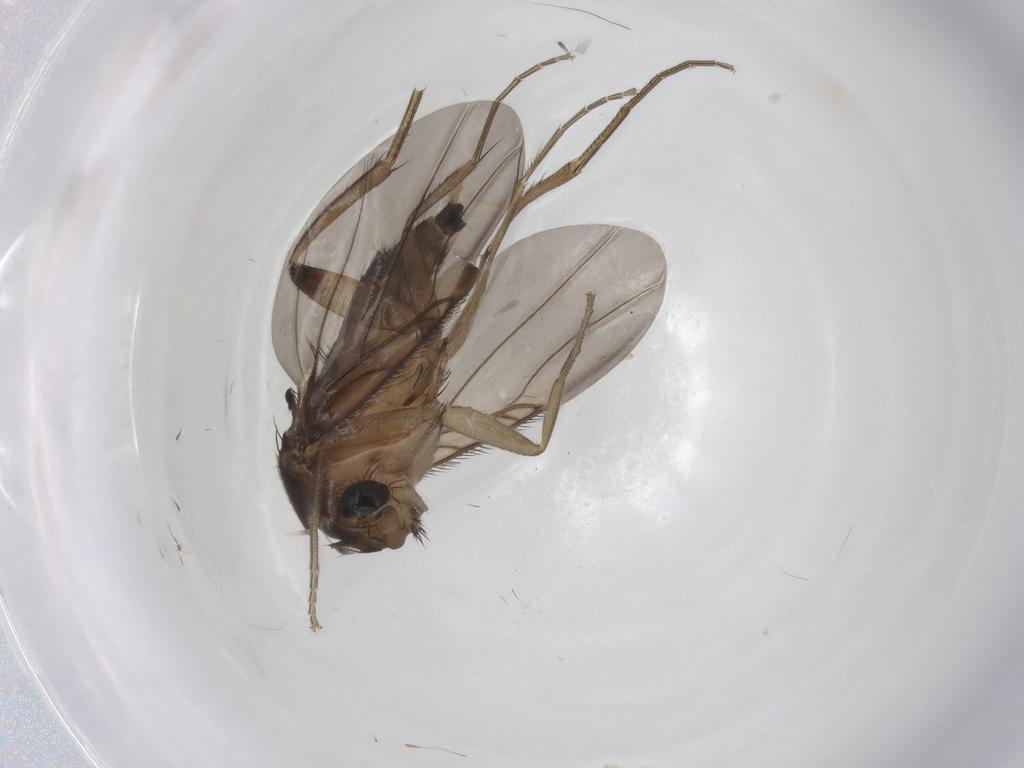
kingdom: Animalia
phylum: Arthropoda
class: Insecta
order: Diptera
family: Phoridae
